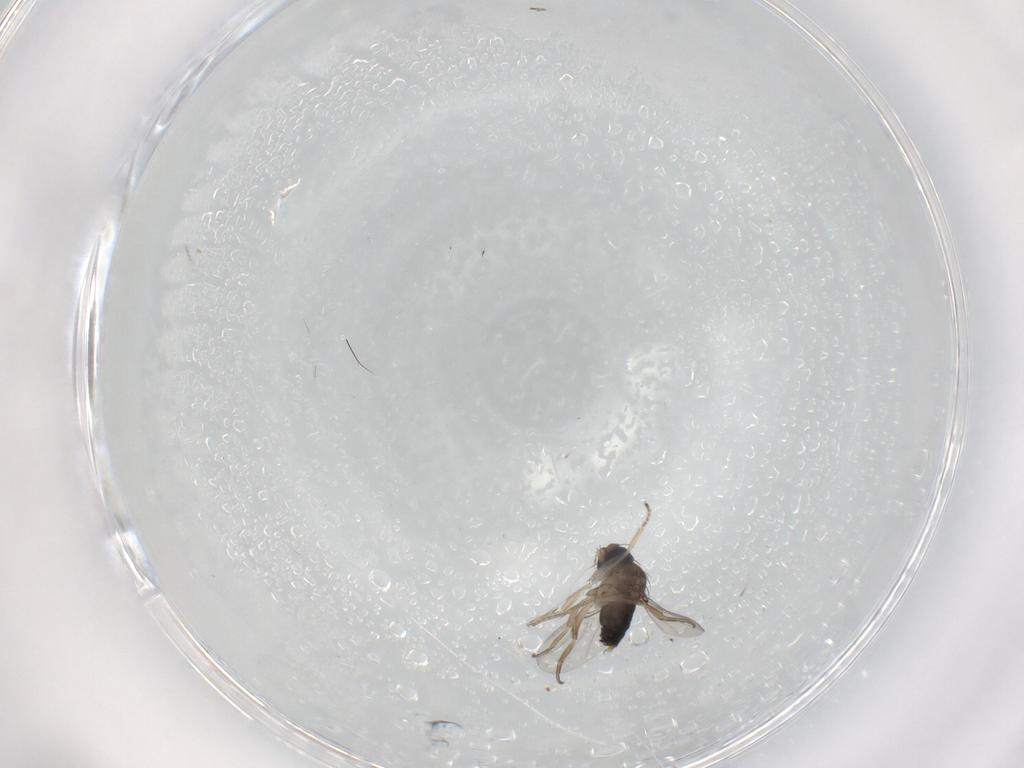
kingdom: Animalia
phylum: Arthropoda
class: Insecta
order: Diptera
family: Phoridae
